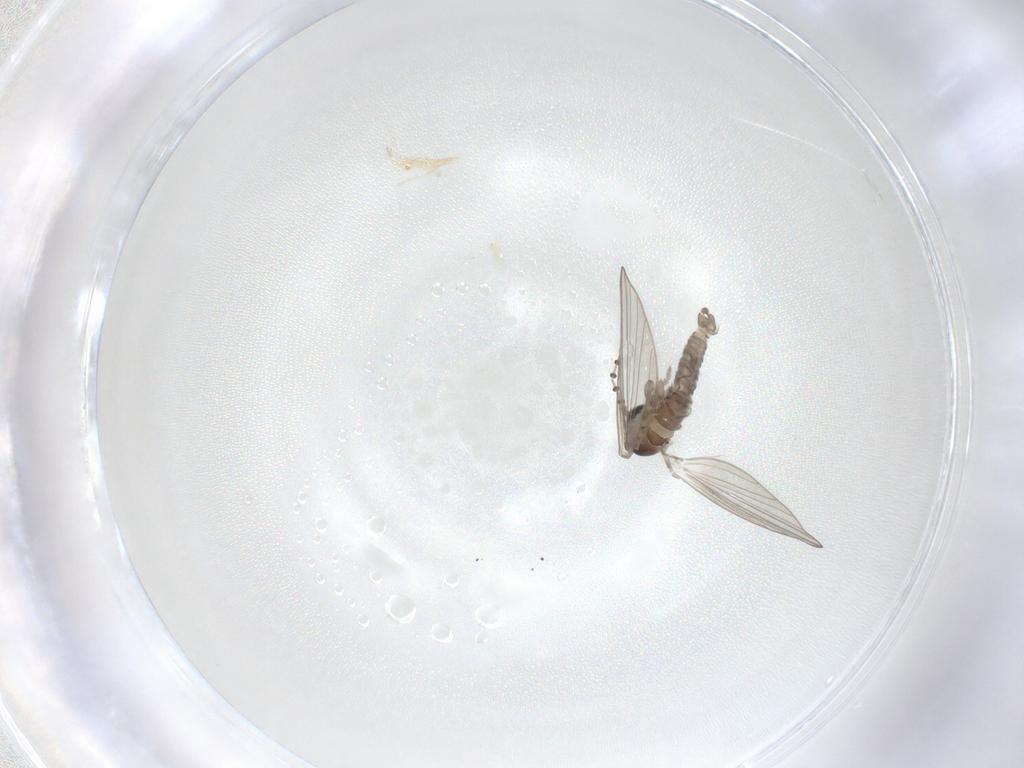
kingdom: Animalia
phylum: Arthropoda
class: Insecta
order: Diptera
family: Psychodidae
